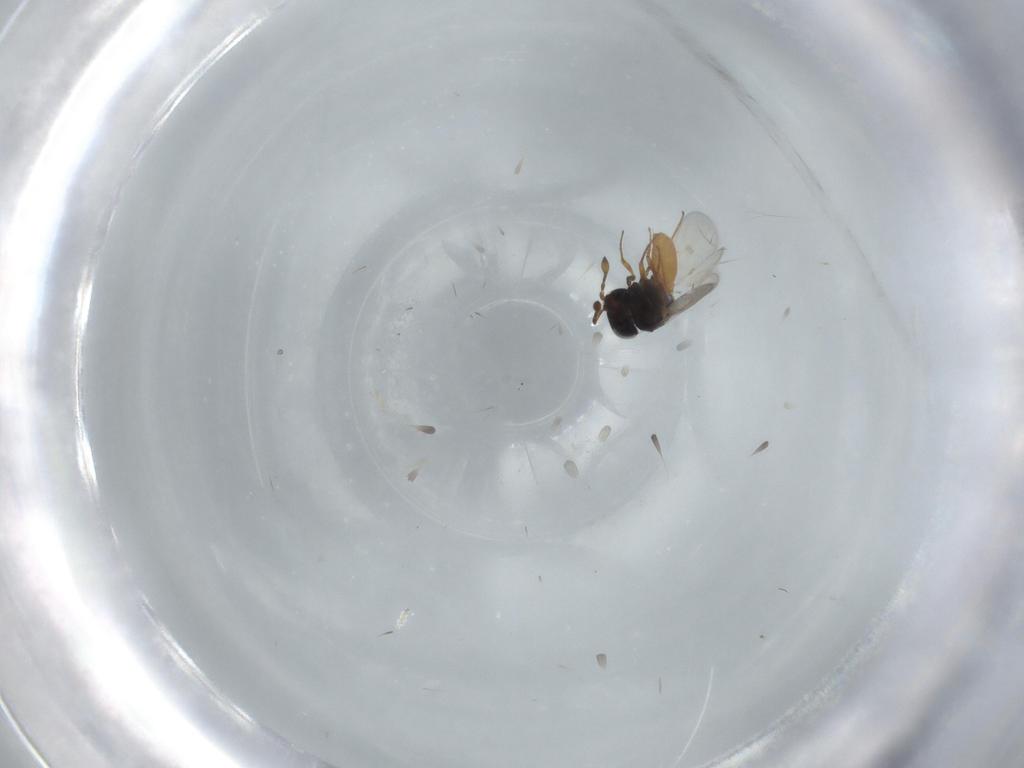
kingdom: Animalia
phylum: Arthropoda
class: Insecta
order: Hymenoptera
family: Scelionidae
